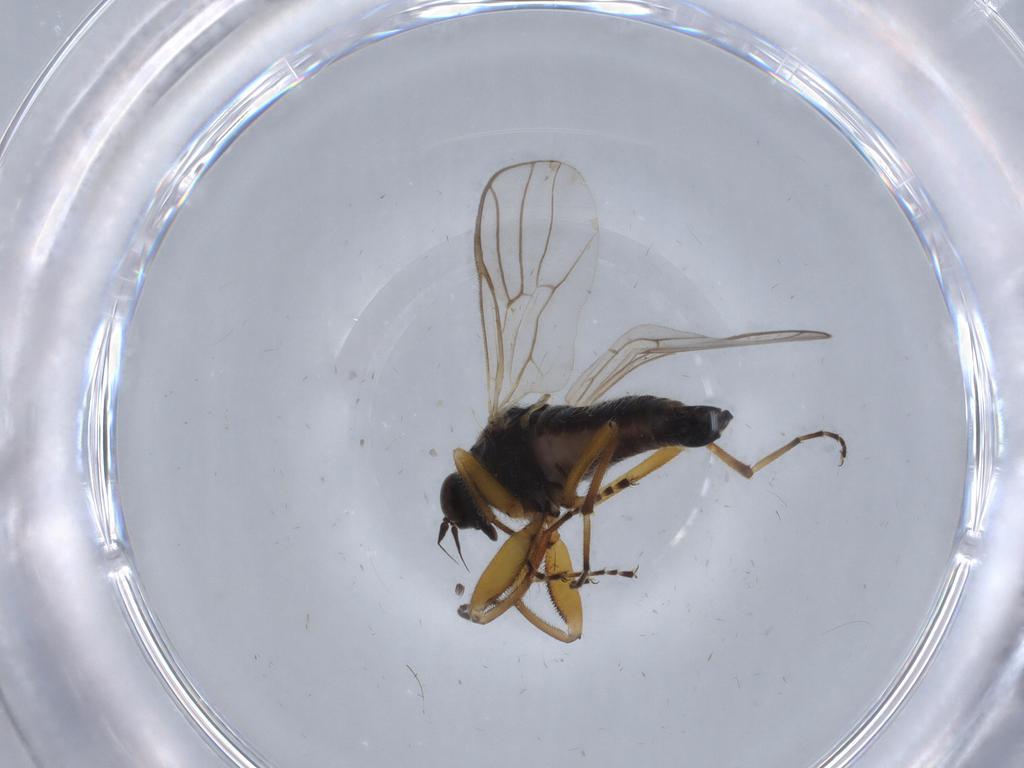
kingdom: Animalia
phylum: Arthropoda
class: Insecta
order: Diptera
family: Hybotidae
